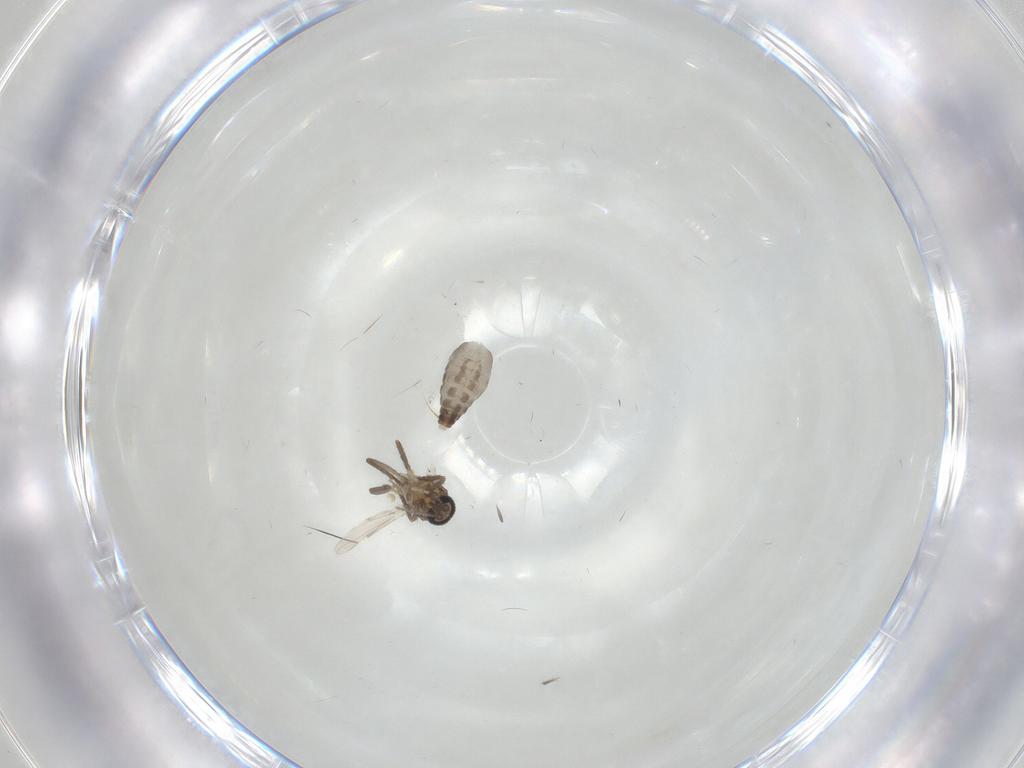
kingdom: Animalia
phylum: Arthropoda
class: Insecta
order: Diptera
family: Ceratopogonidae
